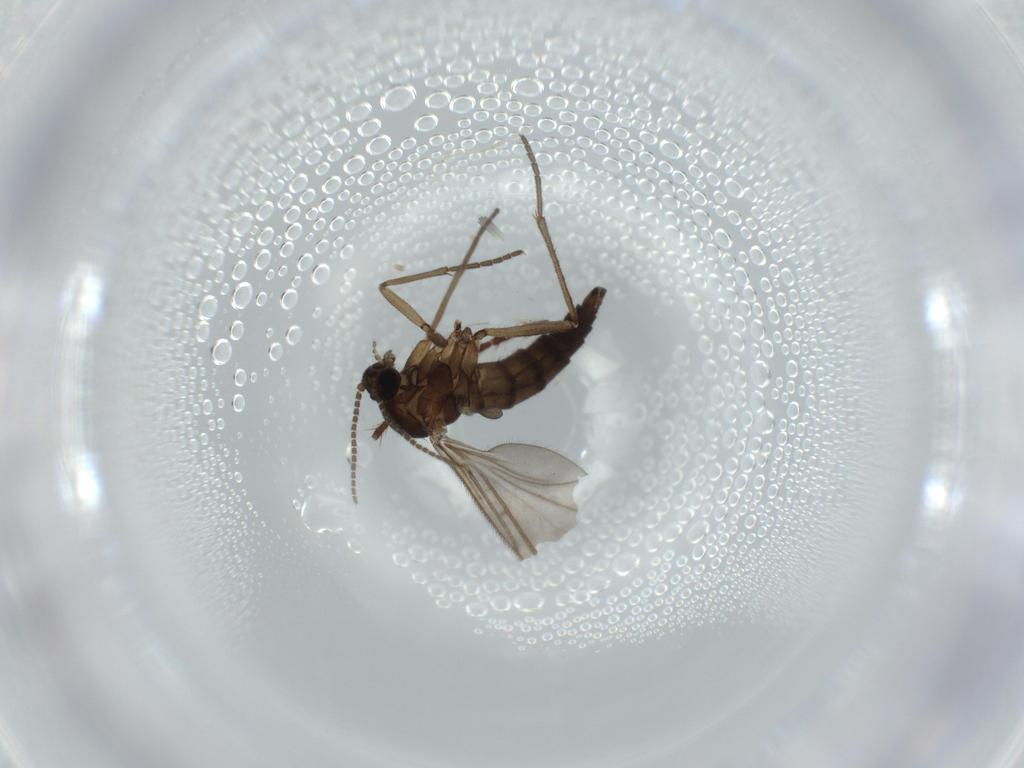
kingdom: Animalia
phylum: Arthropoda
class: Insecta
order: Diptera
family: Sciaridae
